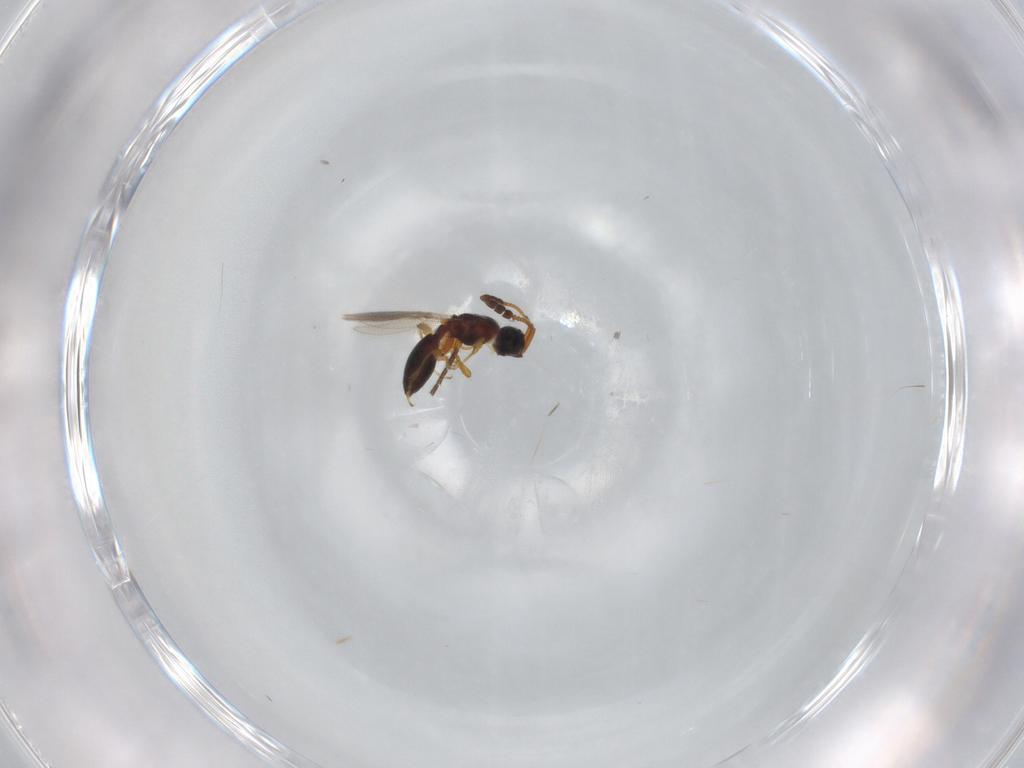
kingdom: Animalia
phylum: Arthropoda
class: Insecta
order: Hymenoptera
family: Diapriidae
